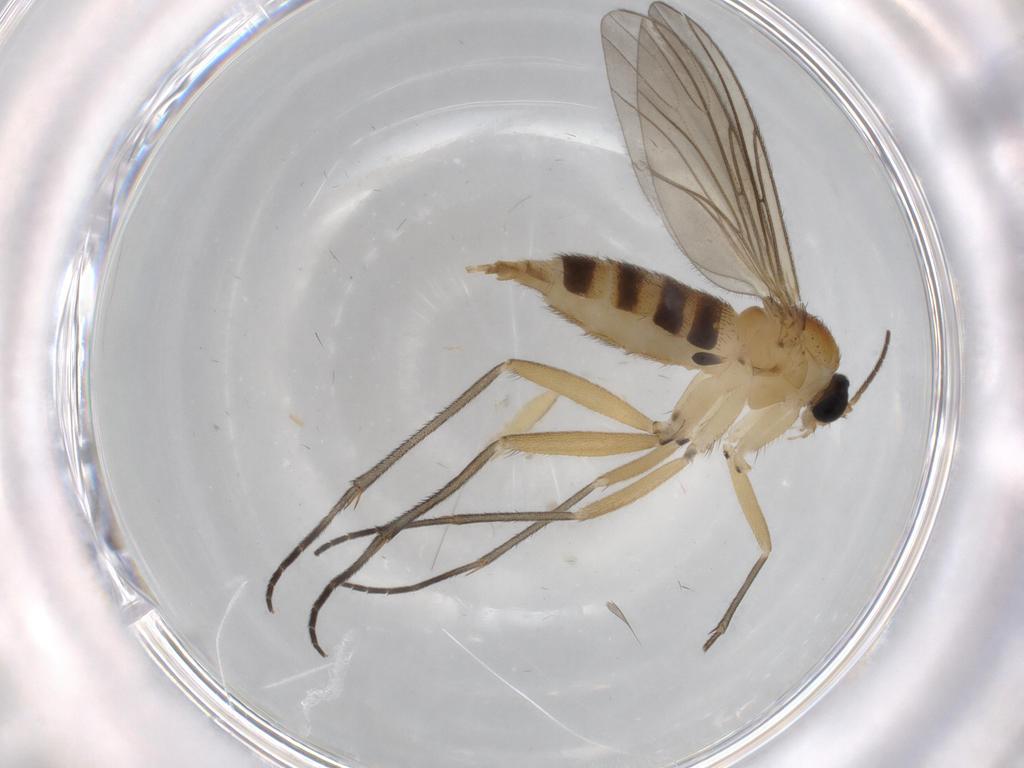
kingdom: Animalia
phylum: Arthropoda
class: Insecta
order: Diptera
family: Sciaridae
